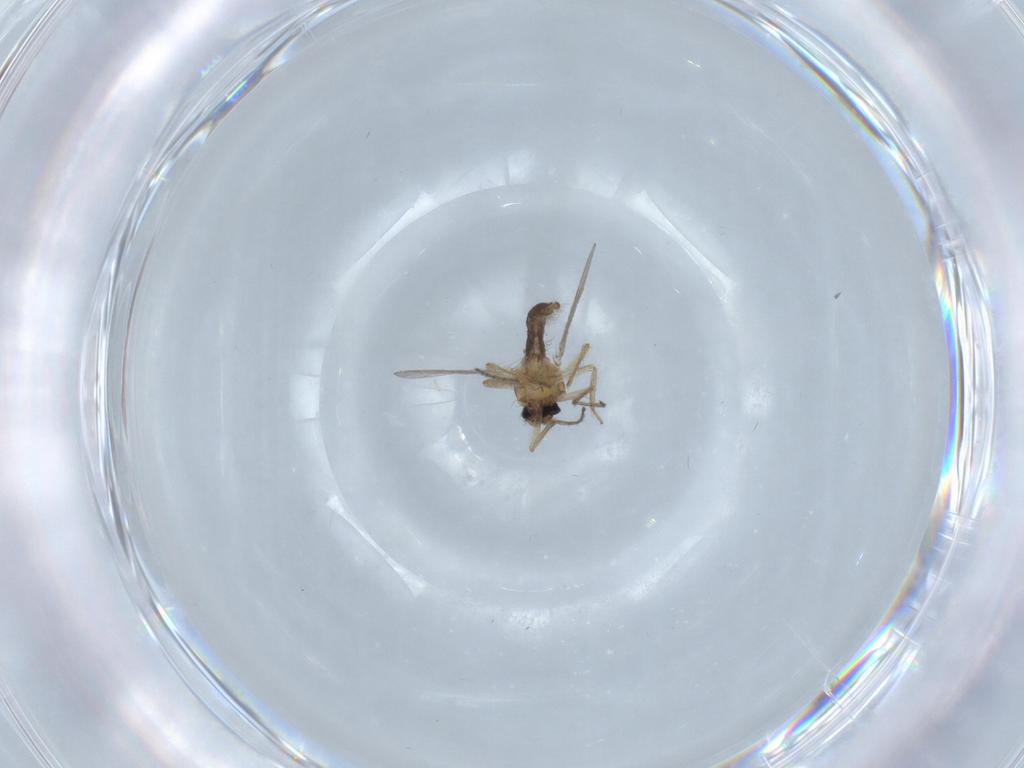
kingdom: Animalia
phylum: Arthropoda
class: Insecta
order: Diptera
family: Ceratopogonidae
